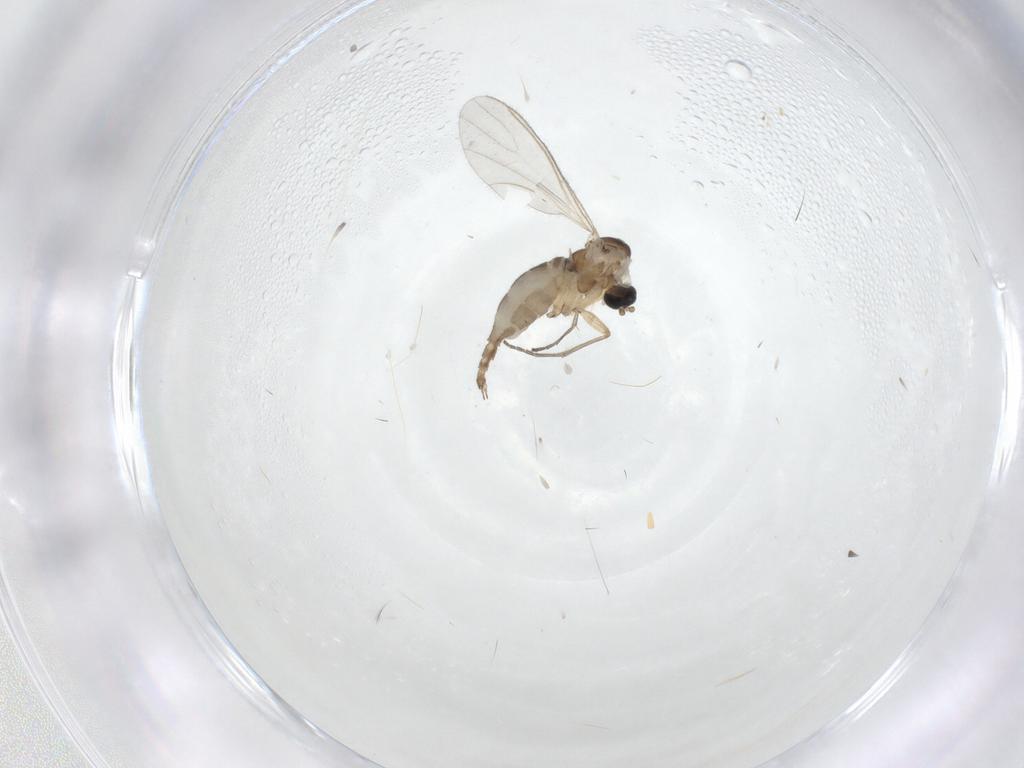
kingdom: Animalia
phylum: Arthropoda
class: Insecta
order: Diptera
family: Sciaridae
